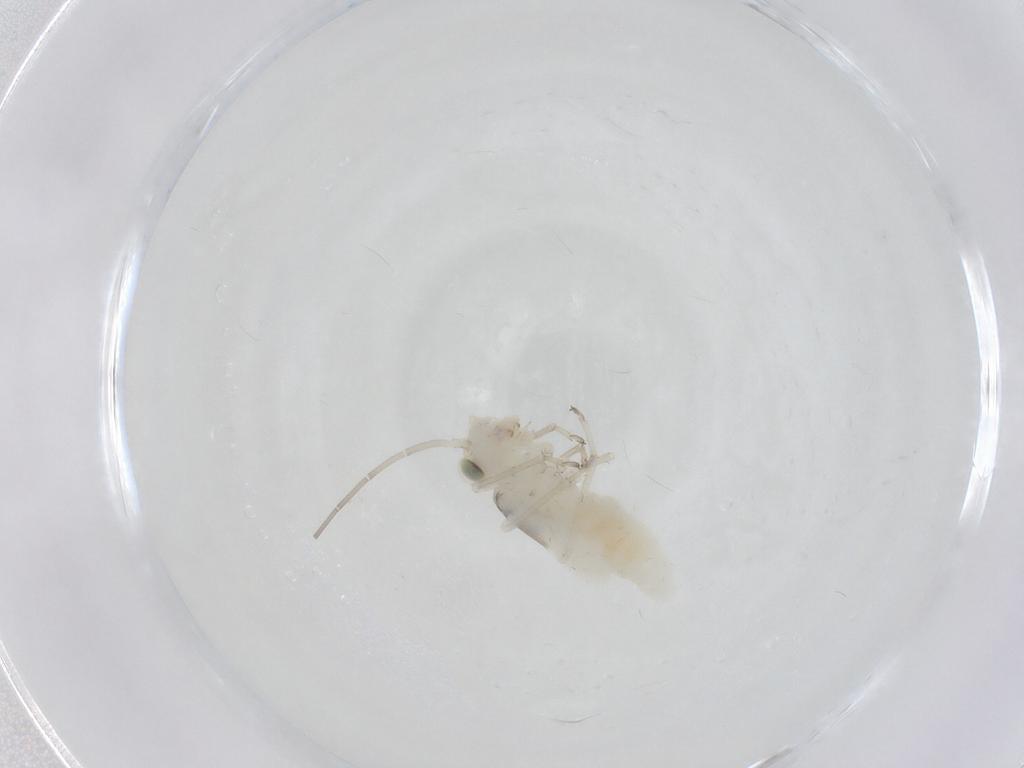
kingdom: Animalia
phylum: Arthropoda
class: Insecta
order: Psocodea
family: Caeciliusidae
